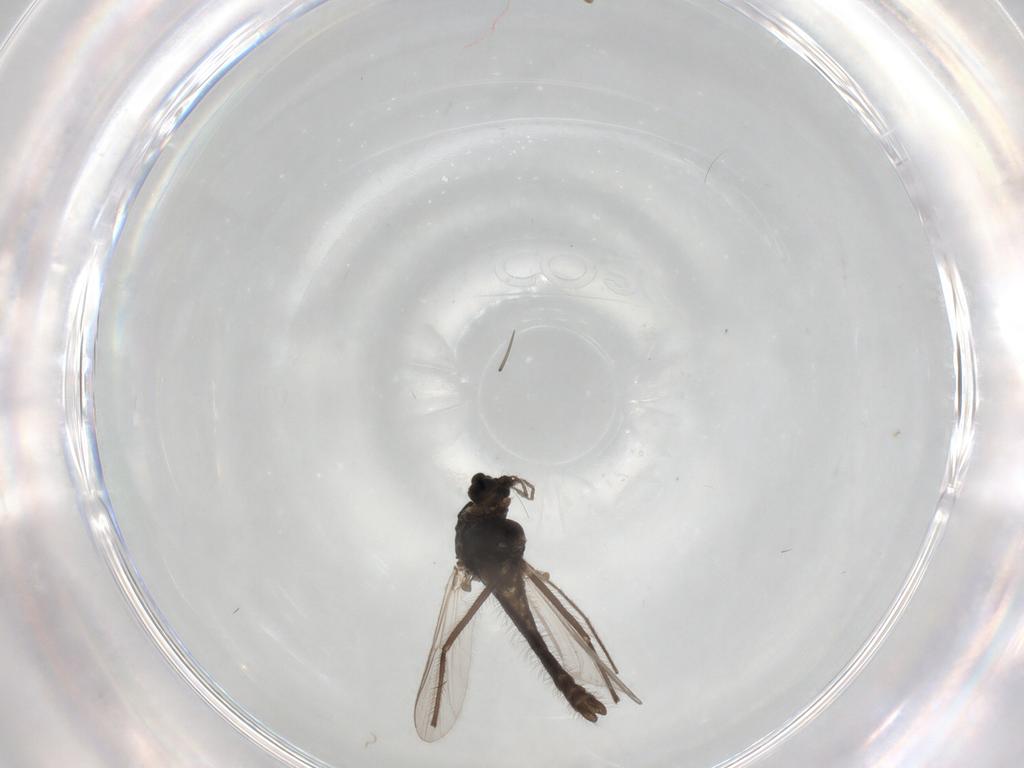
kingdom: Animalia
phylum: Arthropoda
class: Insecta
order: Diptera
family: Chironomidae
